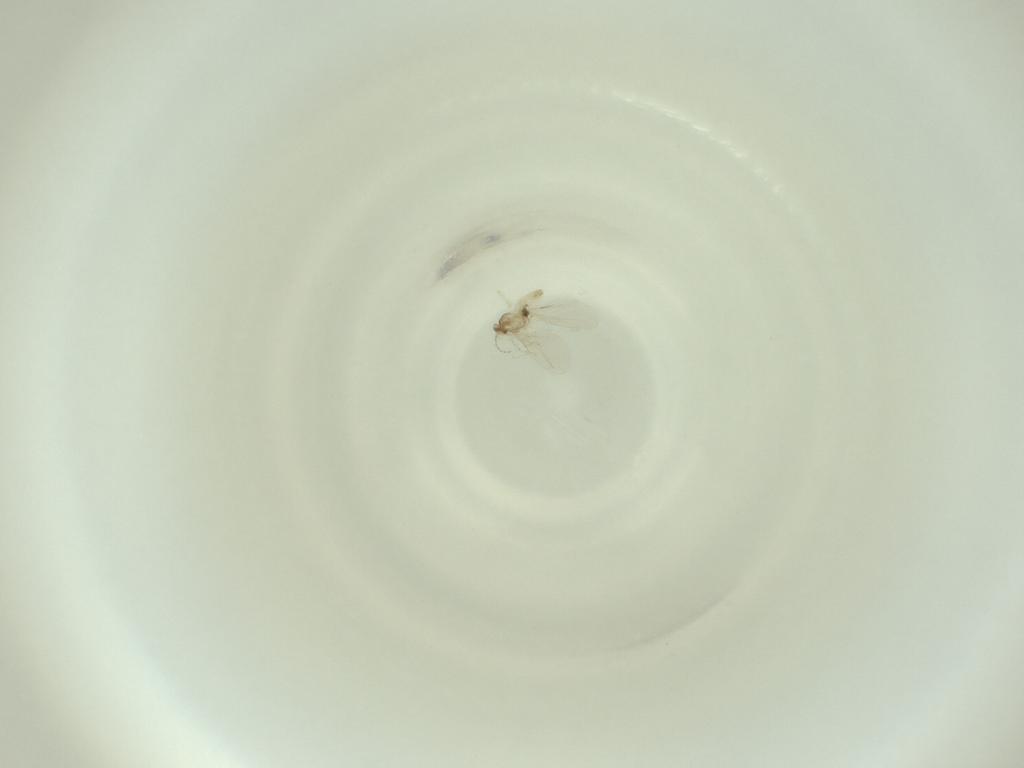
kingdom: Animalia
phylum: Arthropoda
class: Insecta
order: Diptera
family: Cecidomyiidae
